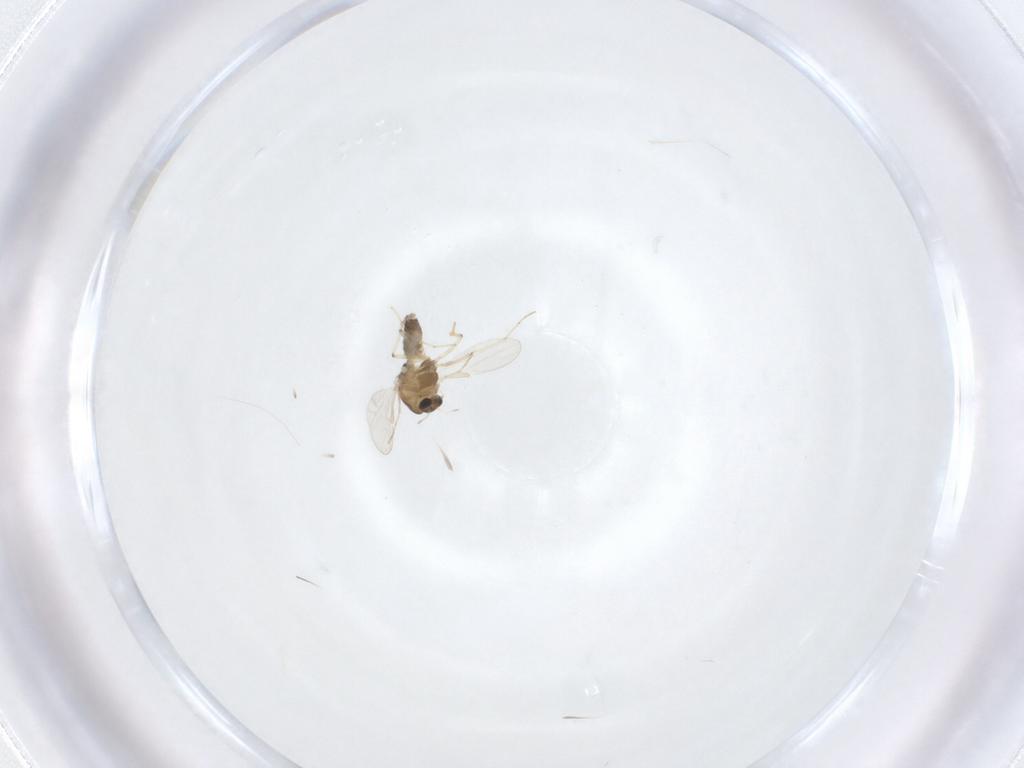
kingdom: Animalia
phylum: Arthropoda
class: Insecta
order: Diptera
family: Chironomidae
